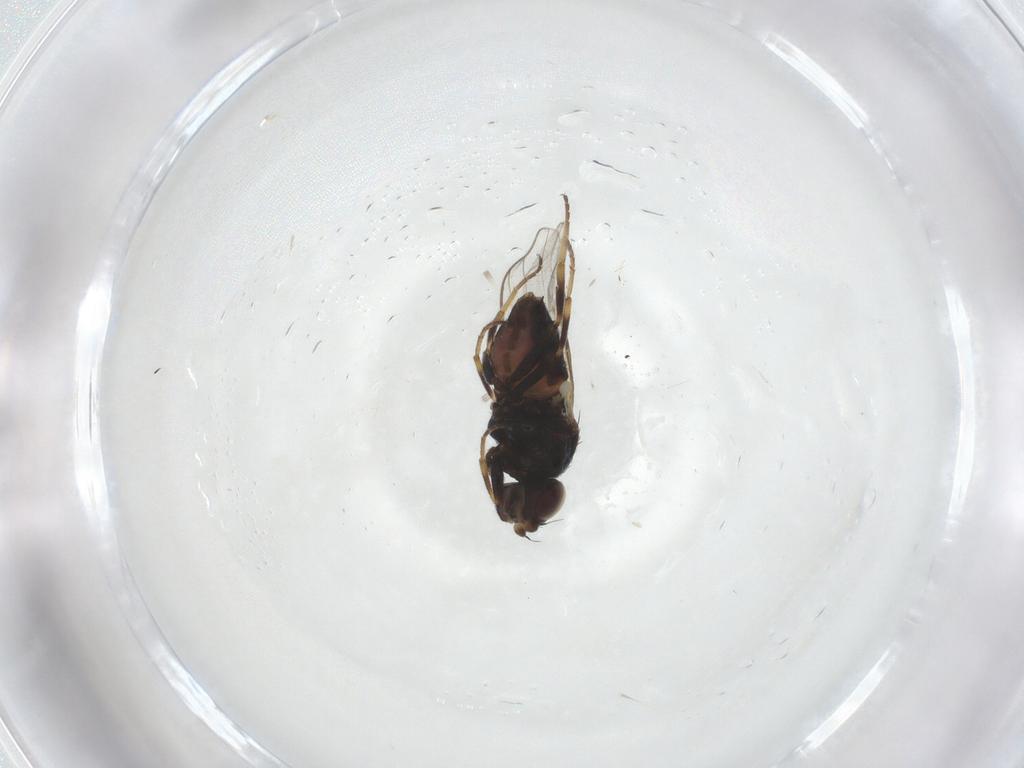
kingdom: Animalia
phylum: Arthropoda
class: Insecta
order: Diptera
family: Chloropidae
